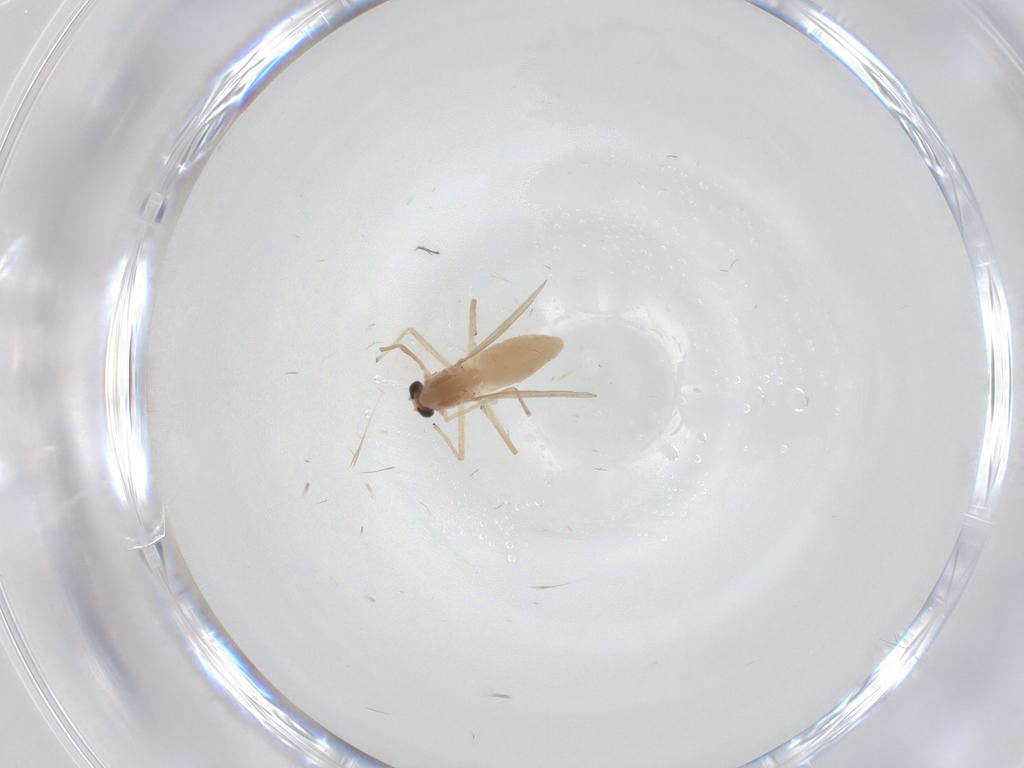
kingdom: Animalia
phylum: Arthropoda
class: Insecta
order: Diptera
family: Chironomidae
